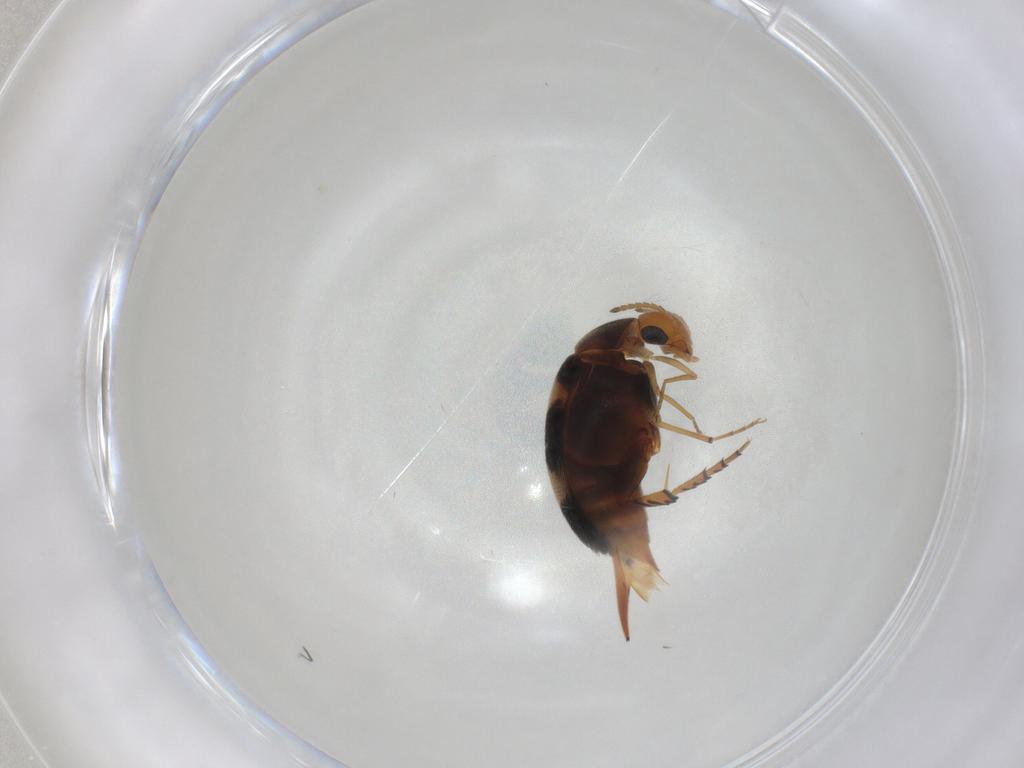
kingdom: Animalia
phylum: Arthropoda
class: Insecta
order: Coleoptera
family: Mordellidae
